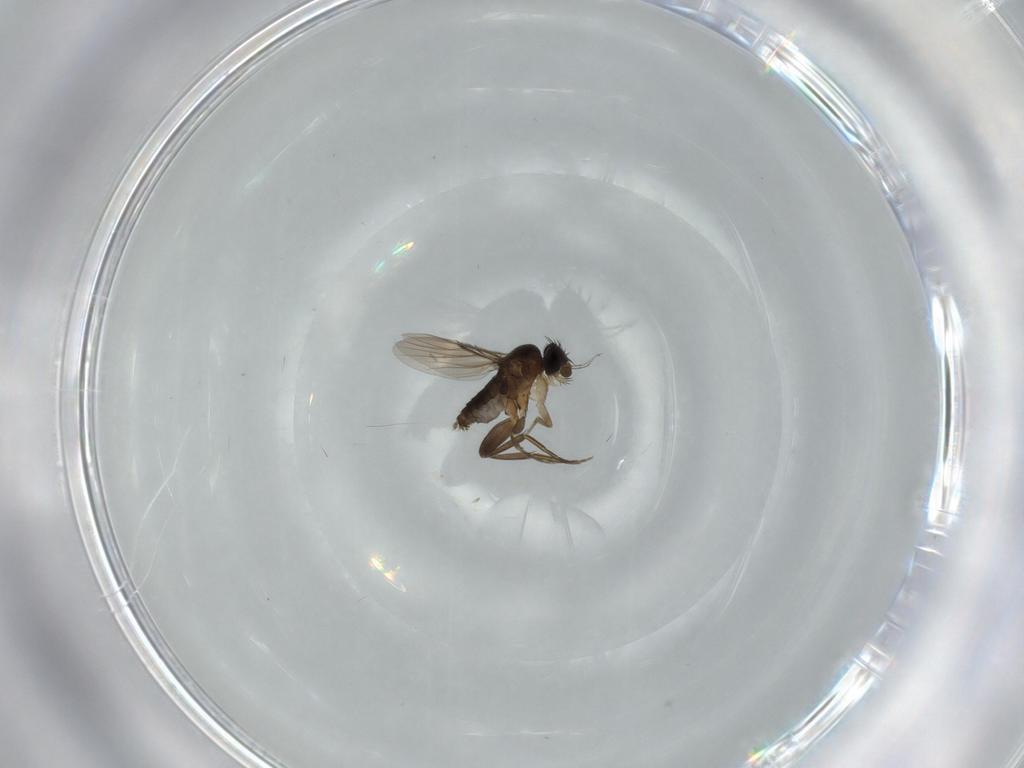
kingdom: Animalia
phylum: Arthropoda
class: Insecta
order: Diptera
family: Phoridae
